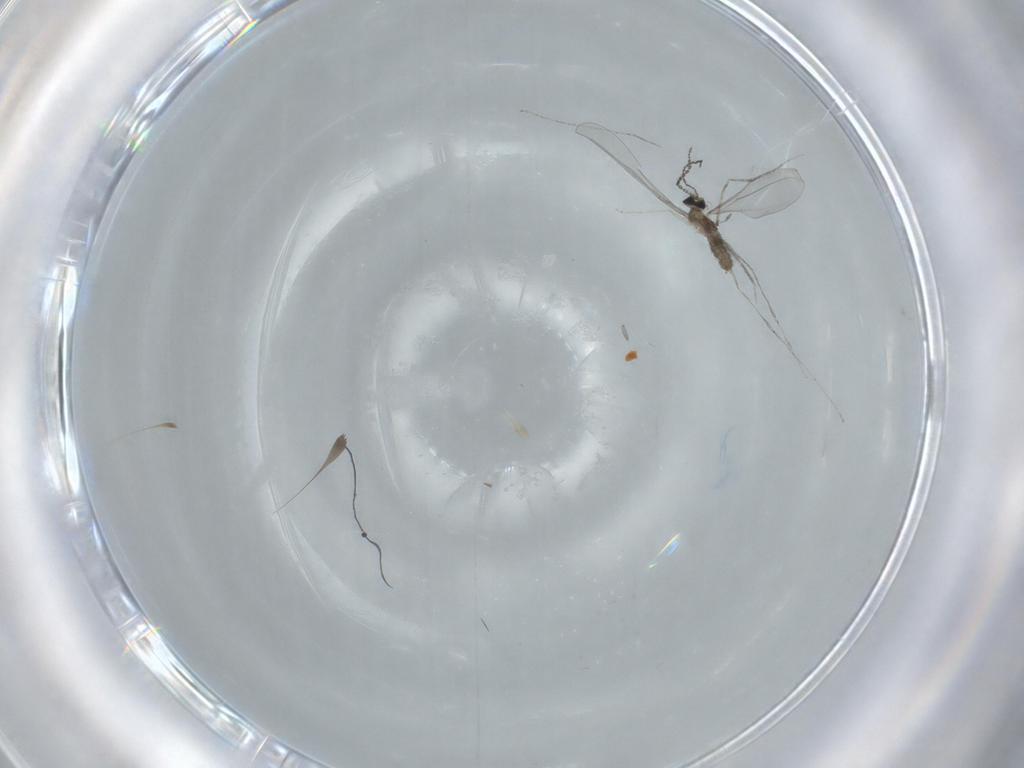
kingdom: Animalia
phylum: Arthropoda
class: Insecta
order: Diptera
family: Cecidomyiidae
